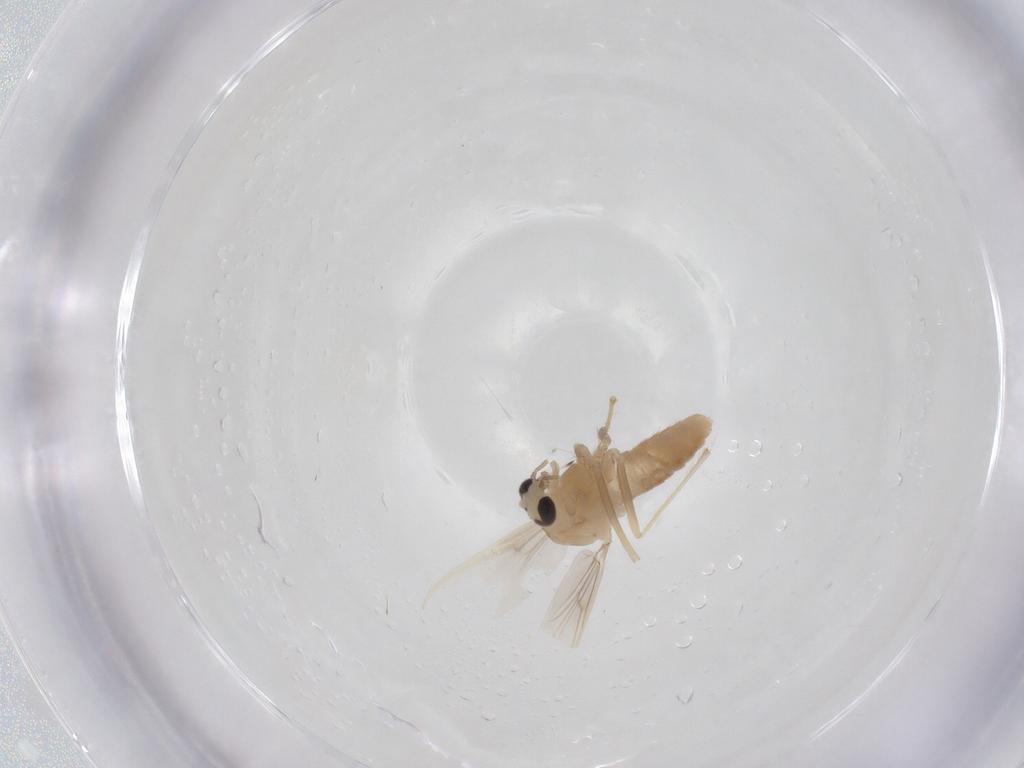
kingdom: Animalia
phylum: Arthropoda
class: Insecta
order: Diptera
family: Chironomidae
